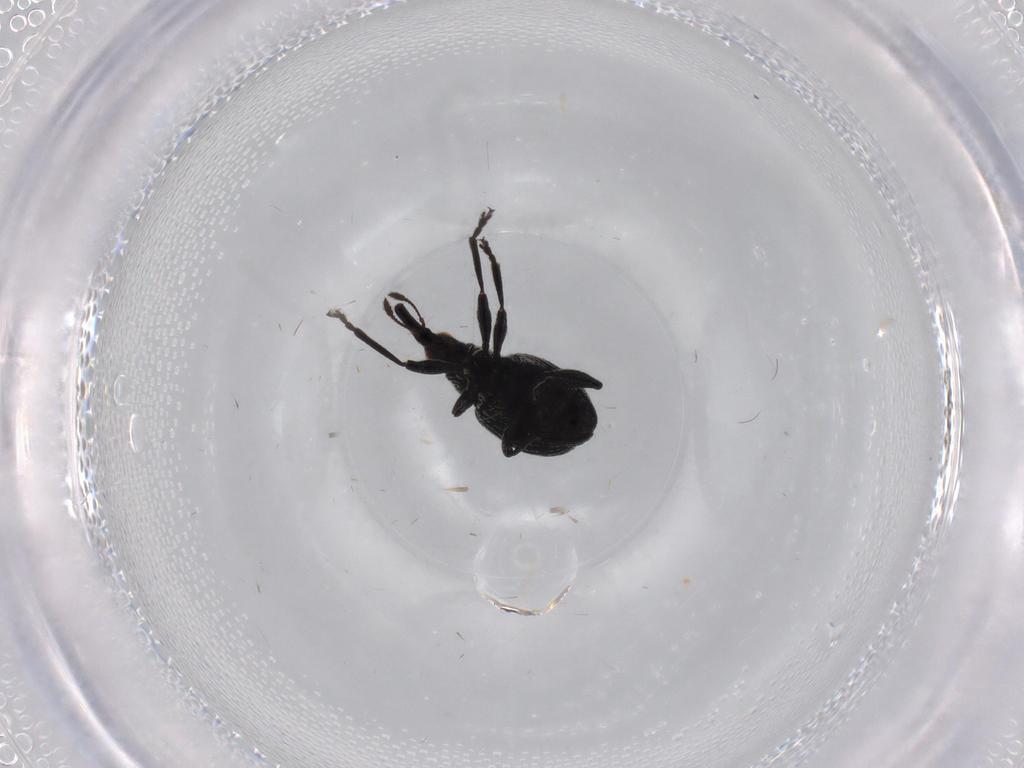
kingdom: Animalia
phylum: Arthropoda
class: Insecta
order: Coleoptera
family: Brentidae
